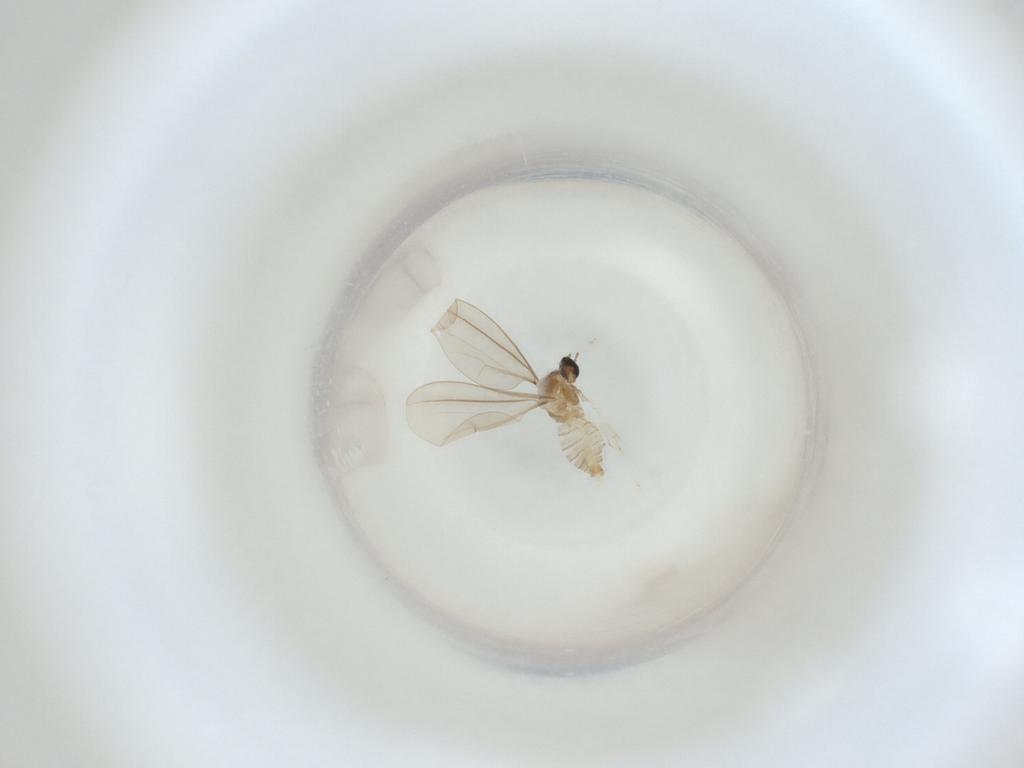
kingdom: Animalia
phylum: Arthropoda
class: Insecta
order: Diptera
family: Cecidomyiidae
